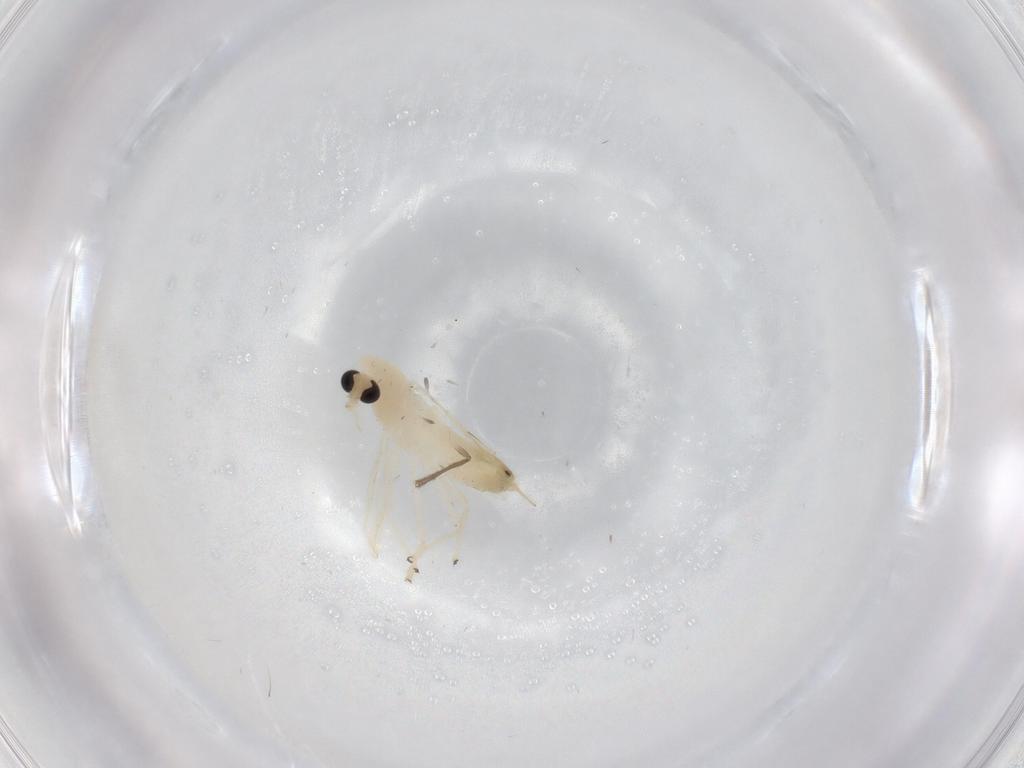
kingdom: Animalia
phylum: Arthropoda
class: Insecta
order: Diptera
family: Chironomidae
